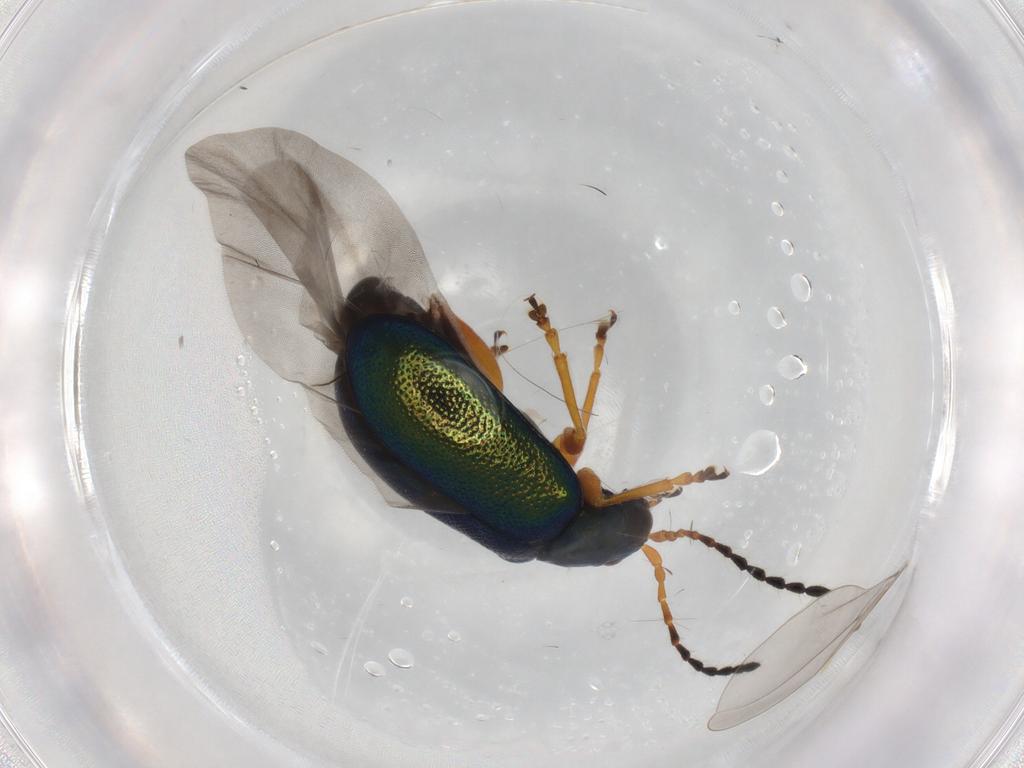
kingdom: Animalia
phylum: Arthropoda
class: Insecta
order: Coleoptera
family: Chrysomelidae
